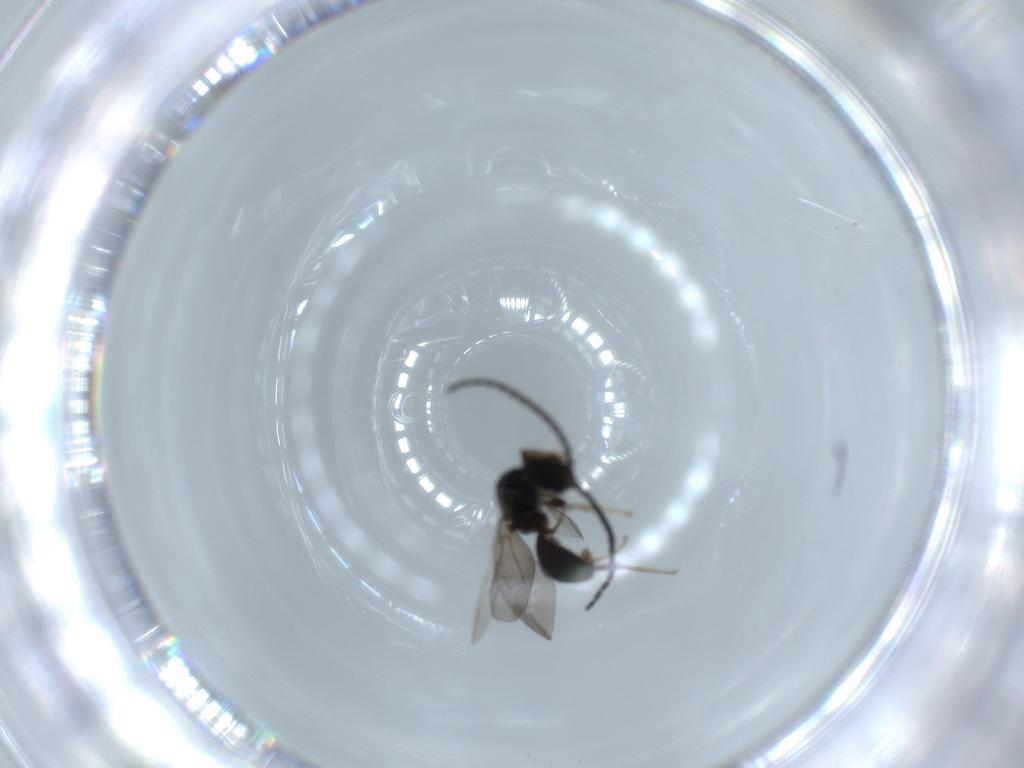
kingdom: Animalia
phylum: Arthropoda
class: Insecta
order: Hymenoptera
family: Bethylidae
